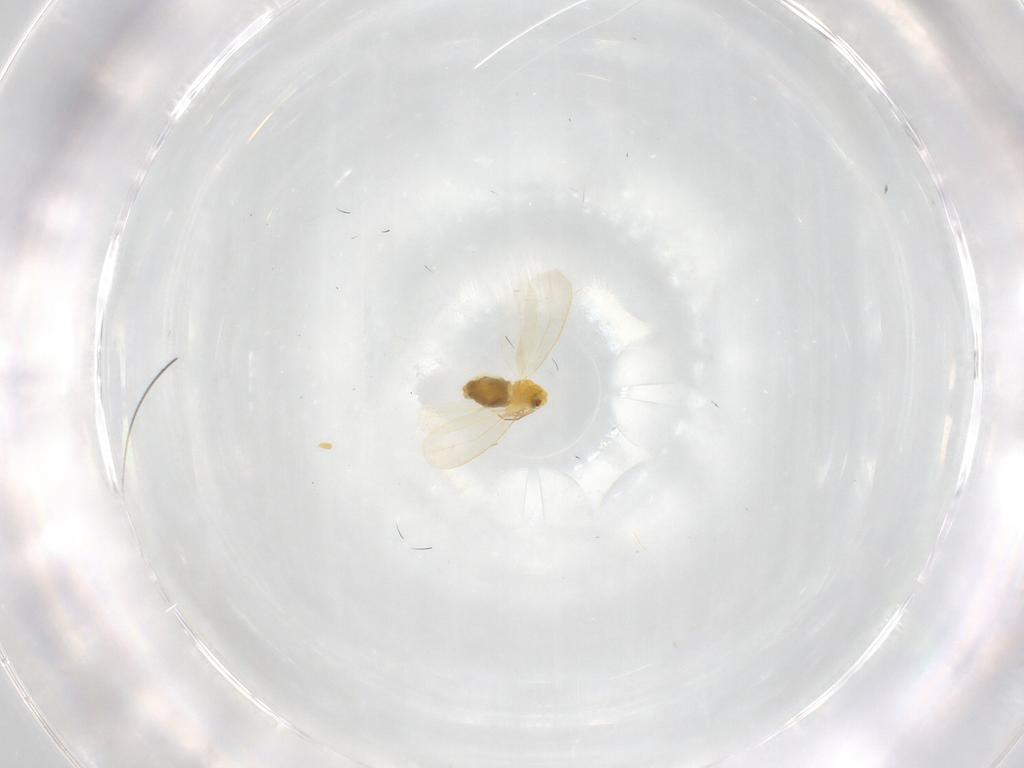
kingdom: Animalia
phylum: Arthropoda
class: Insecta
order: Hemiptera
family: Aleyrodidae
